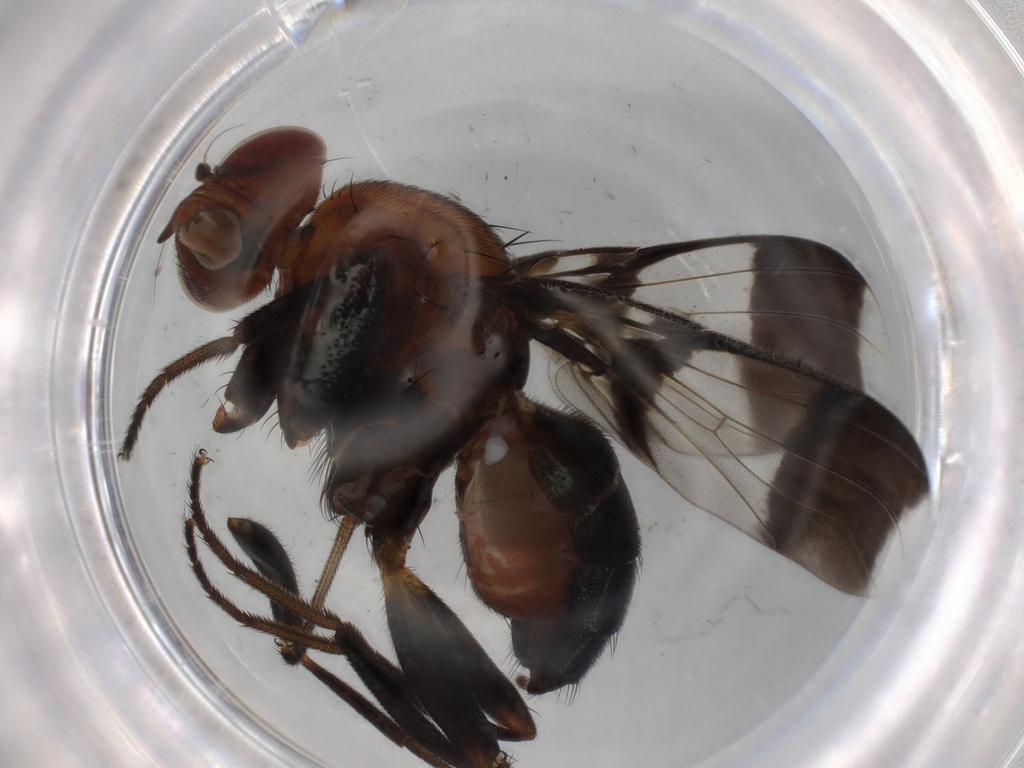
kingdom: Animalia
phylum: Arthropoda
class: Insecta
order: Diptera
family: Richardiidae
